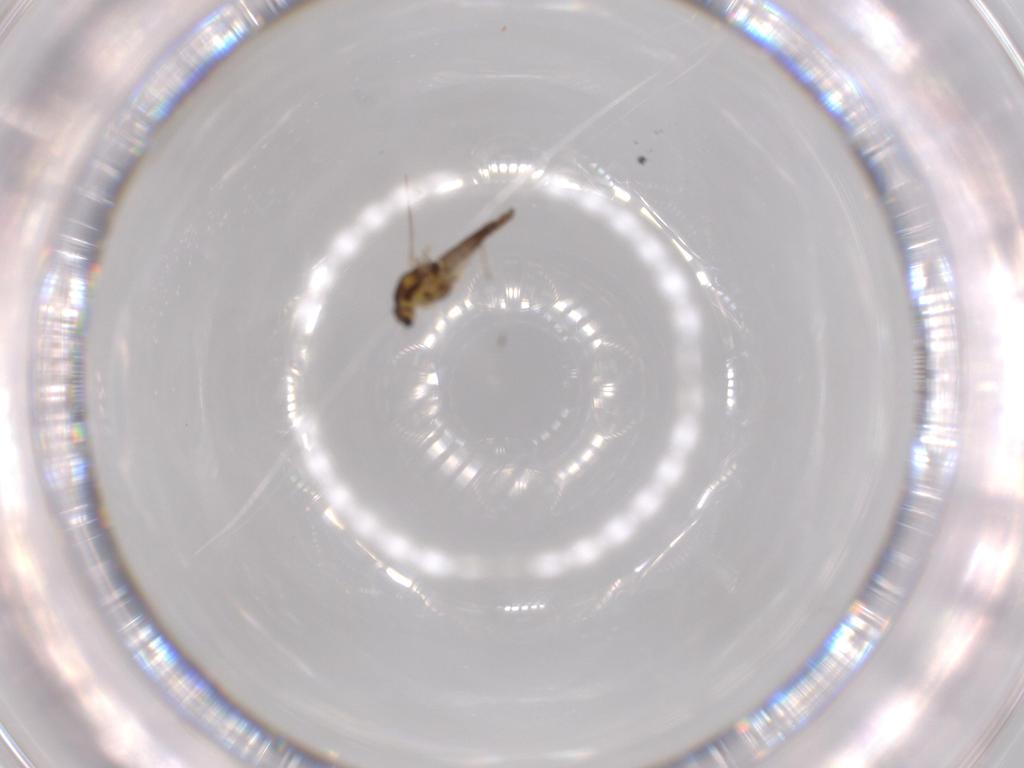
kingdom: Animalia
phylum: Arthropoda
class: Insecta
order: Diptera
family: Chironomidae
